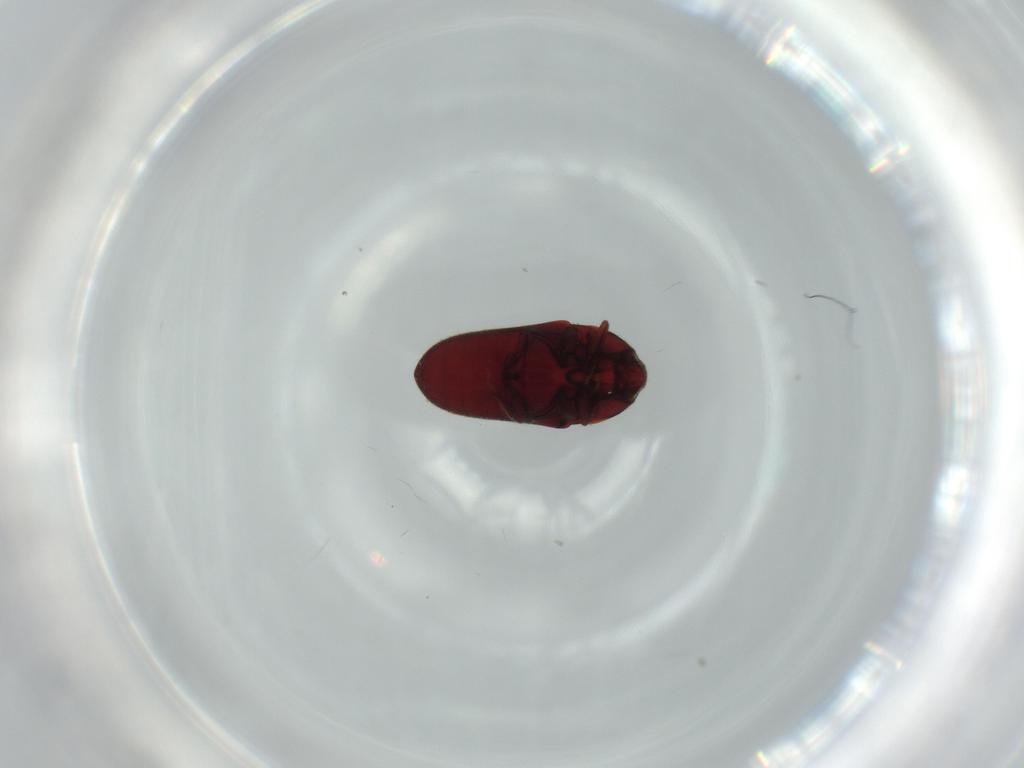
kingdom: Animalia
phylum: Arthropoda
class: Insecta
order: Coleoptera
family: Throscidae
